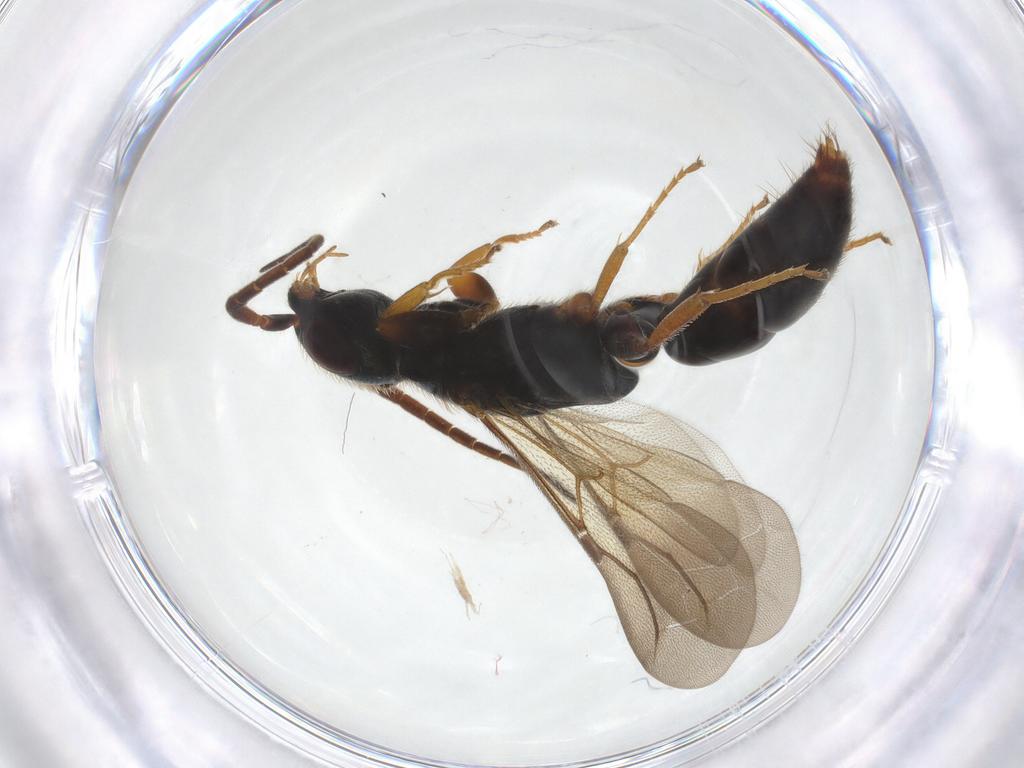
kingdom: Animalia
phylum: Arthropoda
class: Insecta
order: Hymenoptera
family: Bethylidae
